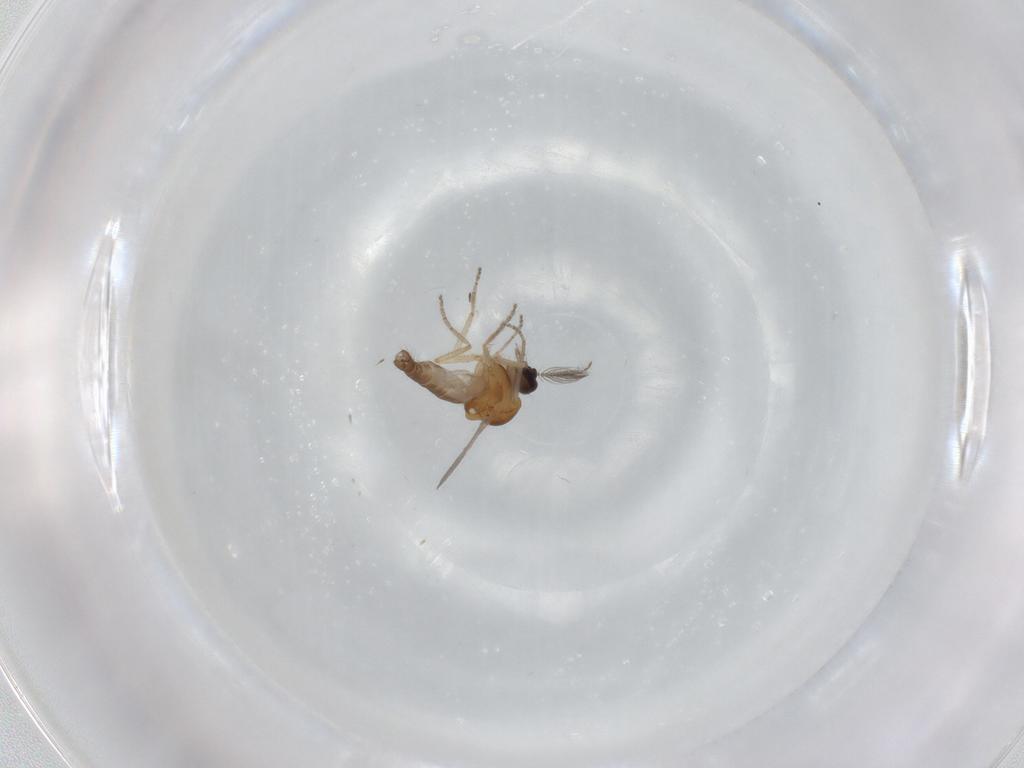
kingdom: Animalia
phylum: Arthropoda
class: Insecta
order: Diptera
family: Ceratopogonidae
